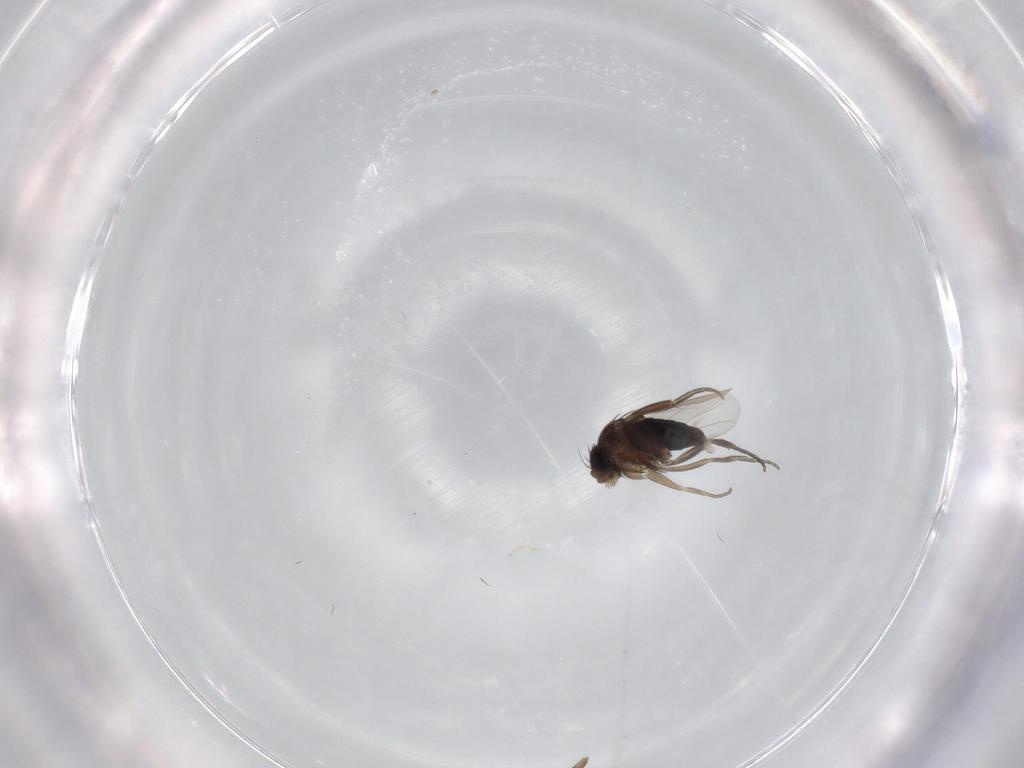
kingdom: Animalia
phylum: Arthropoda
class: Insecta
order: Diptera
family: Phoridae
